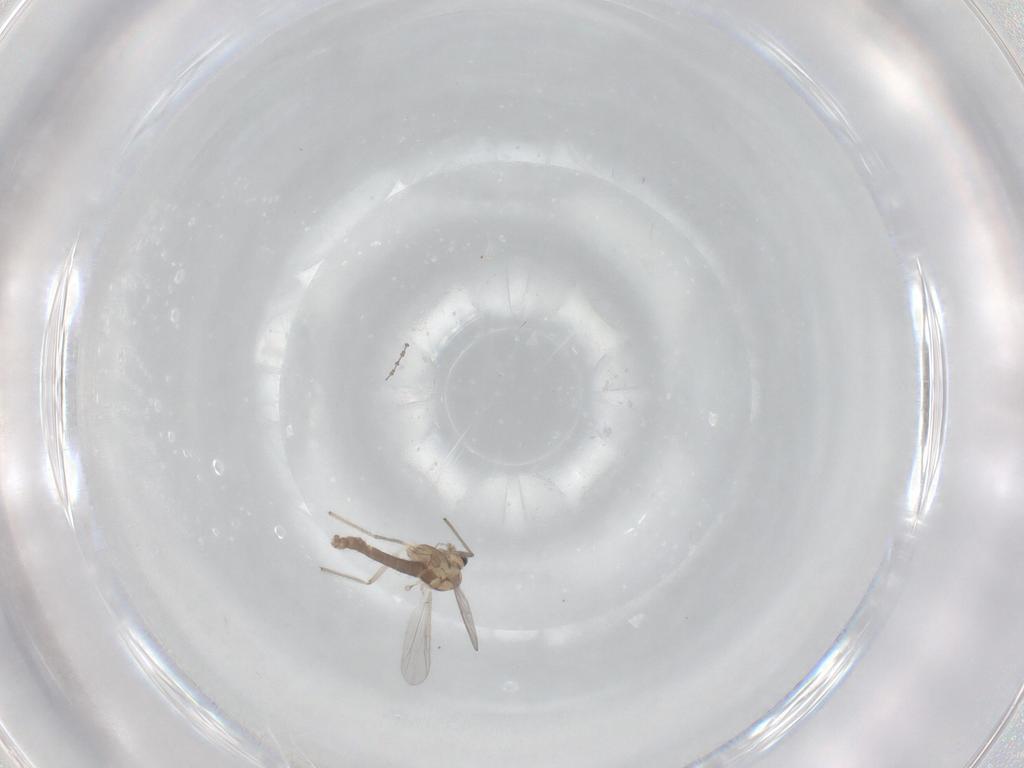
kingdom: Animalia
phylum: Arthropoda
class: Insecta
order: Diptera
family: Chironomidae
